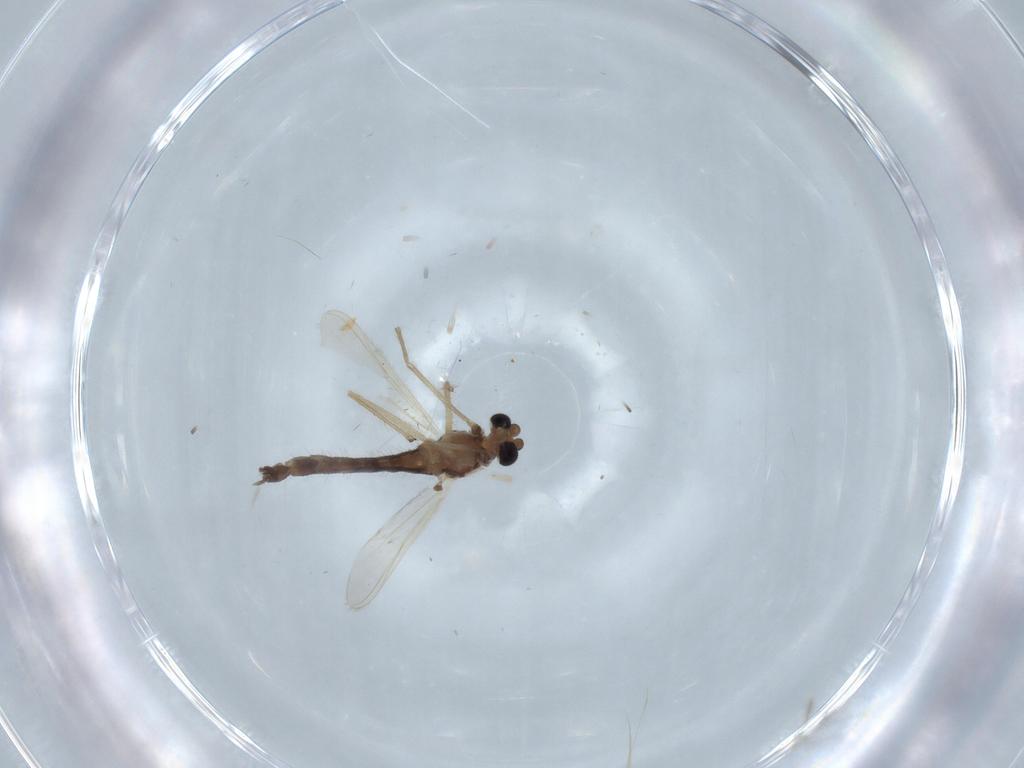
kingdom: Animalia
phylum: Arthropoda
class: Insecta
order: Diptera
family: Chironomidae
